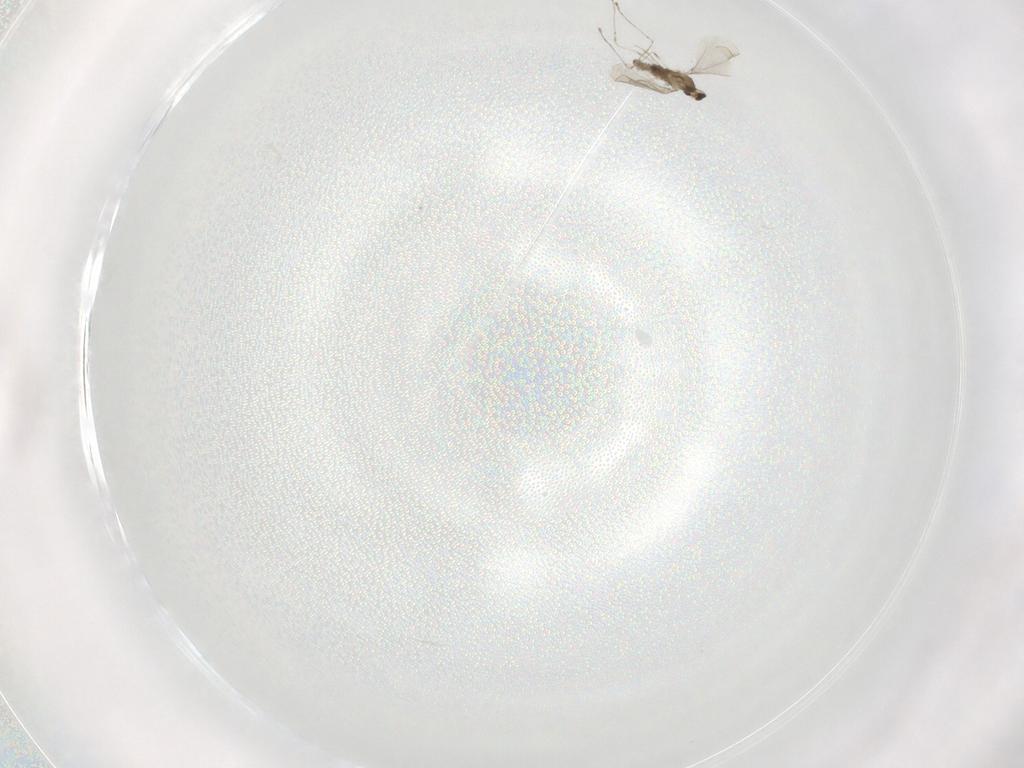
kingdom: Animalia
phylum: Arthropoda
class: Insecta
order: Diptera
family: Cecidomyiidae
